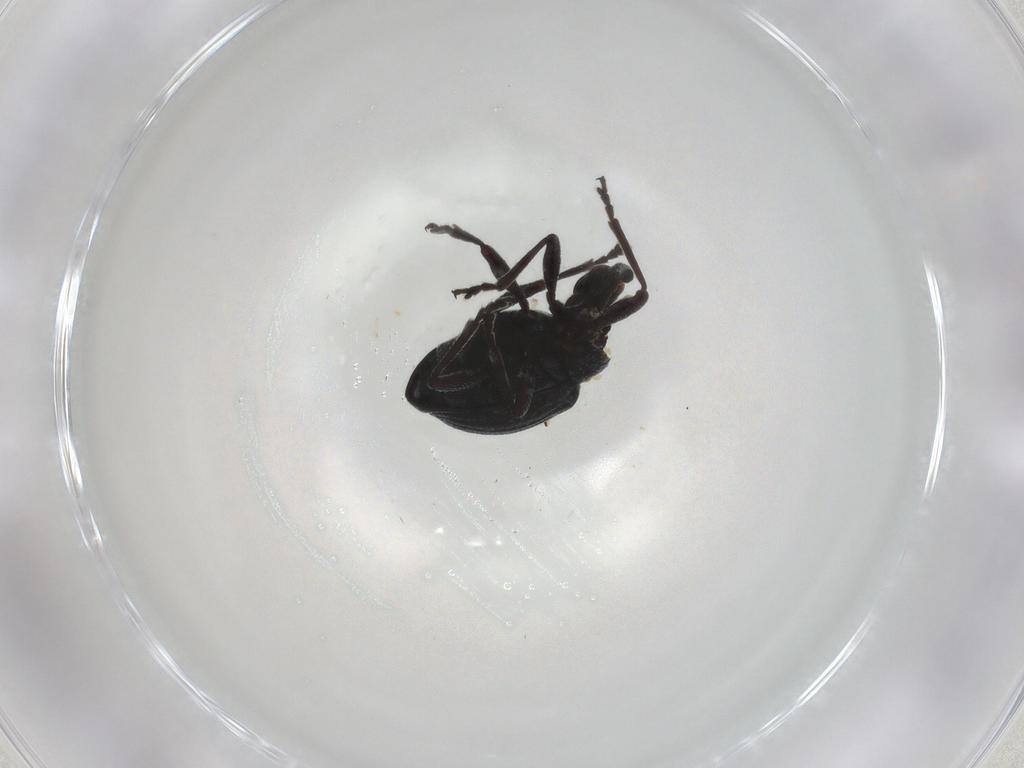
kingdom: Animalia
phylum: Arthropoda
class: Insecta
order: Coleoptera
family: Brentidae
